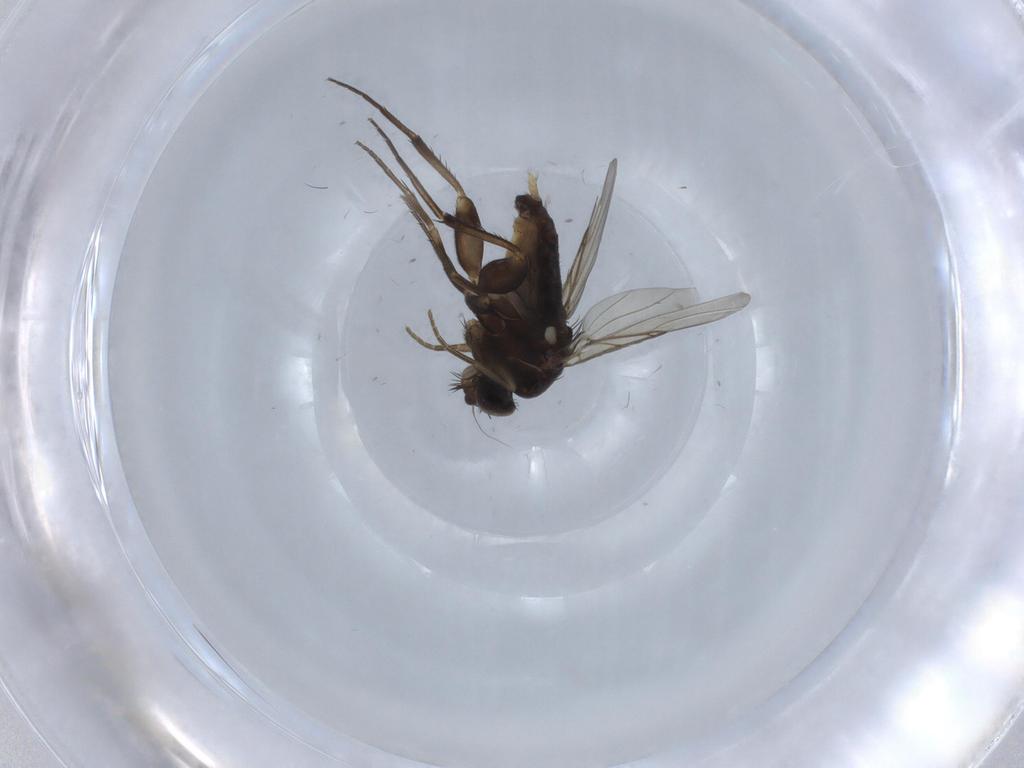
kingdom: Animalia
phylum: Arthropoda
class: Insecta
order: Diptera
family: Phoridae
